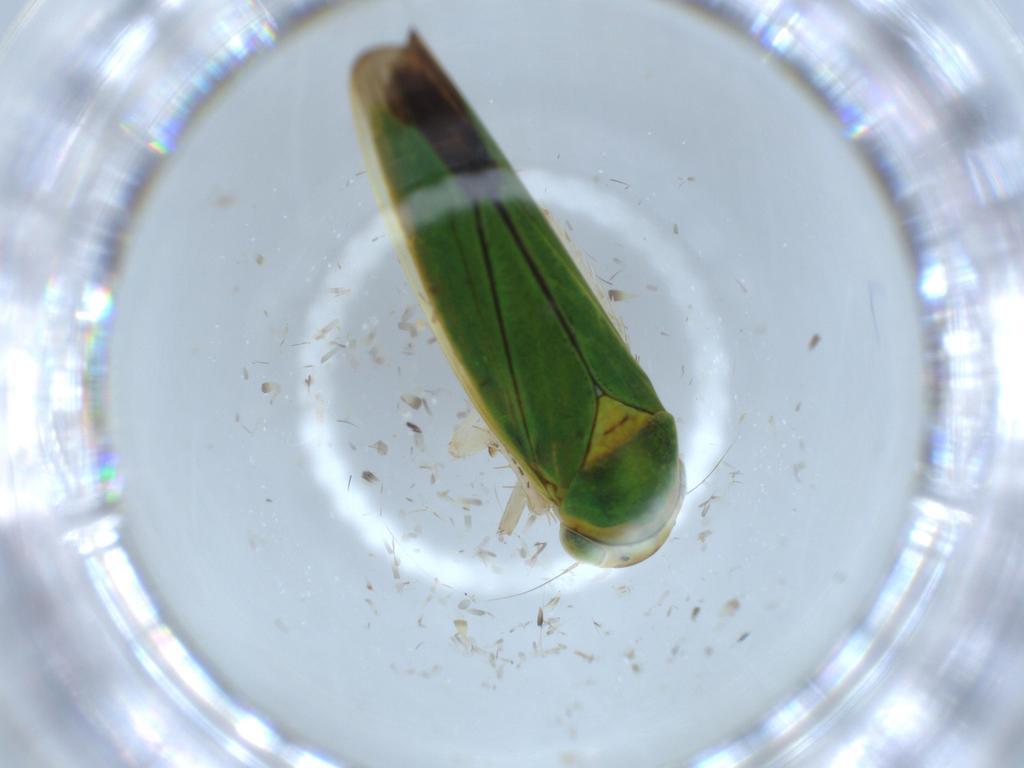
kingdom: Animalia
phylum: Arthropoda
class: Insecta
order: Hemiptera
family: Cicadellidae
